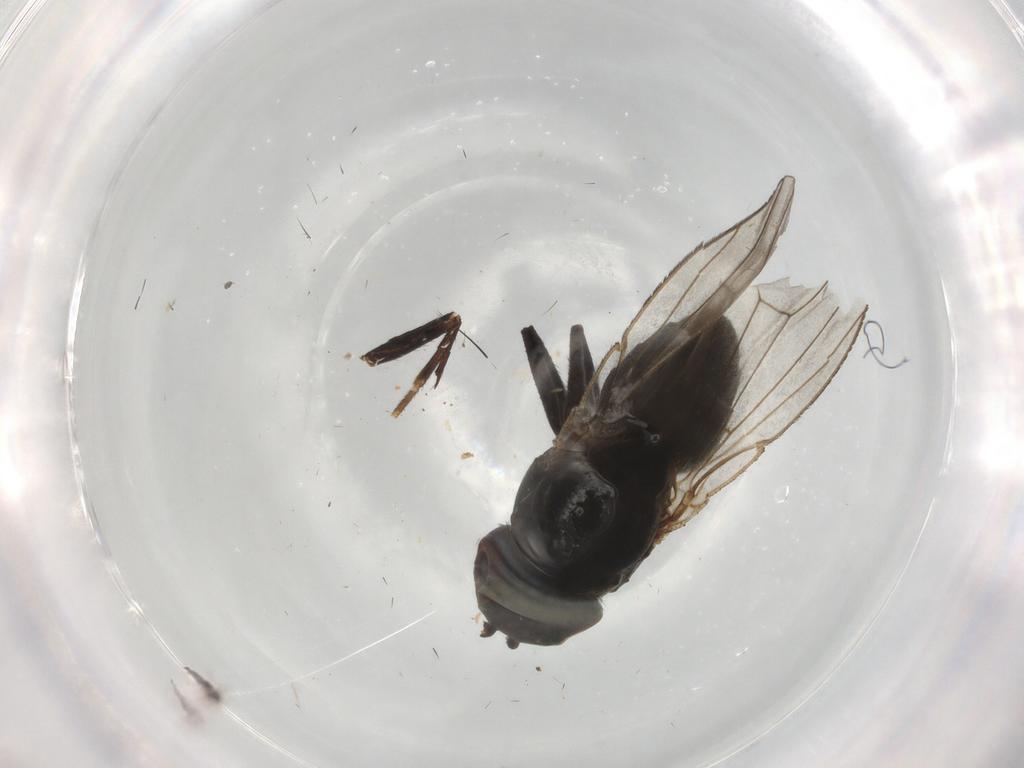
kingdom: Animalia
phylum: Arthropoda
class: Insecta
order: Diptera
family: Ephydridae
